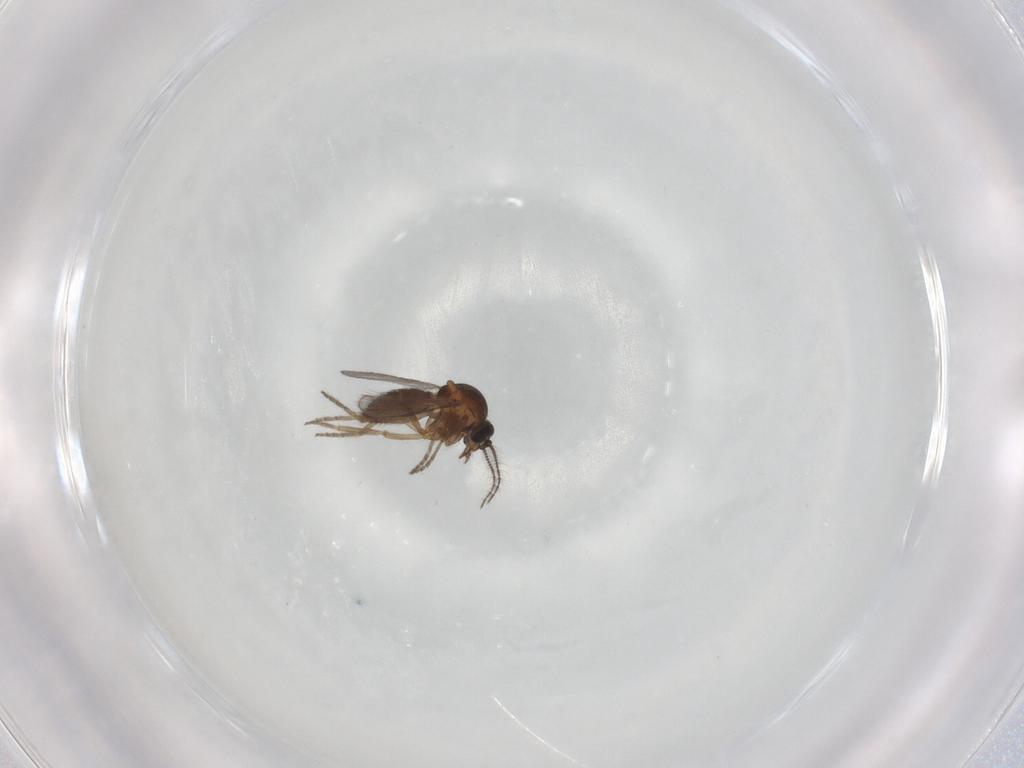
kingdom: Animalia
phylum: Arthropoda
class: Insecta
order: Diptera
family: Ceratopogonidae
